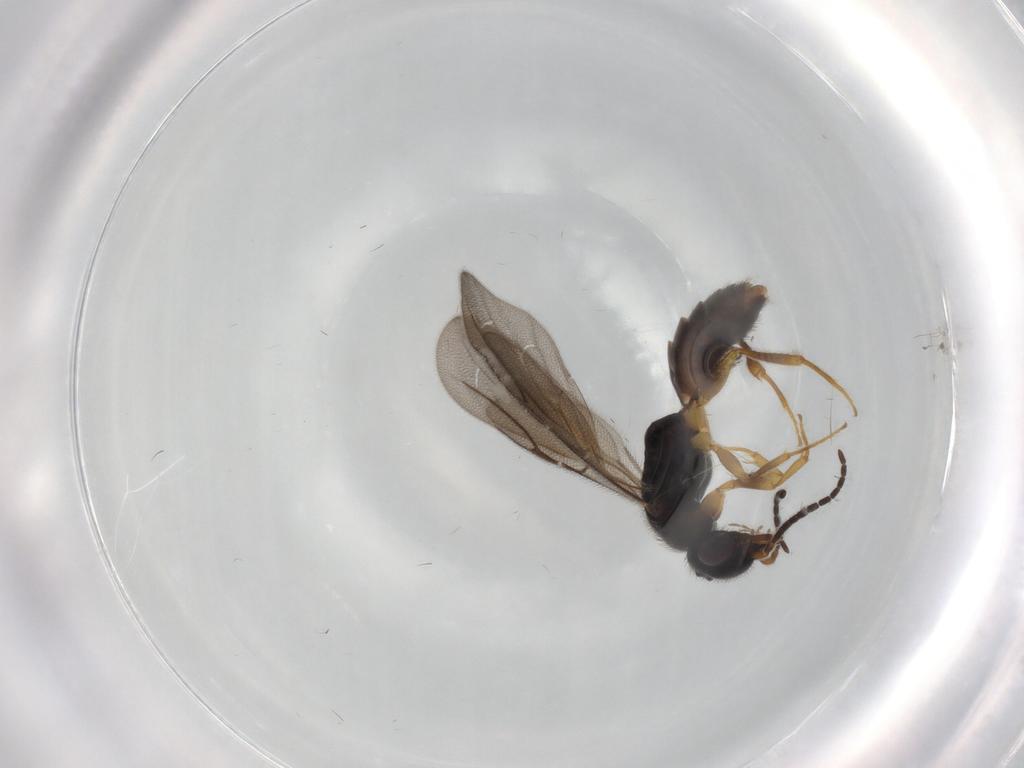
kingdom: Animalia
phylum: Arthropoda
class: Insecta
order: Hymenoptera
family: Bethylidae
